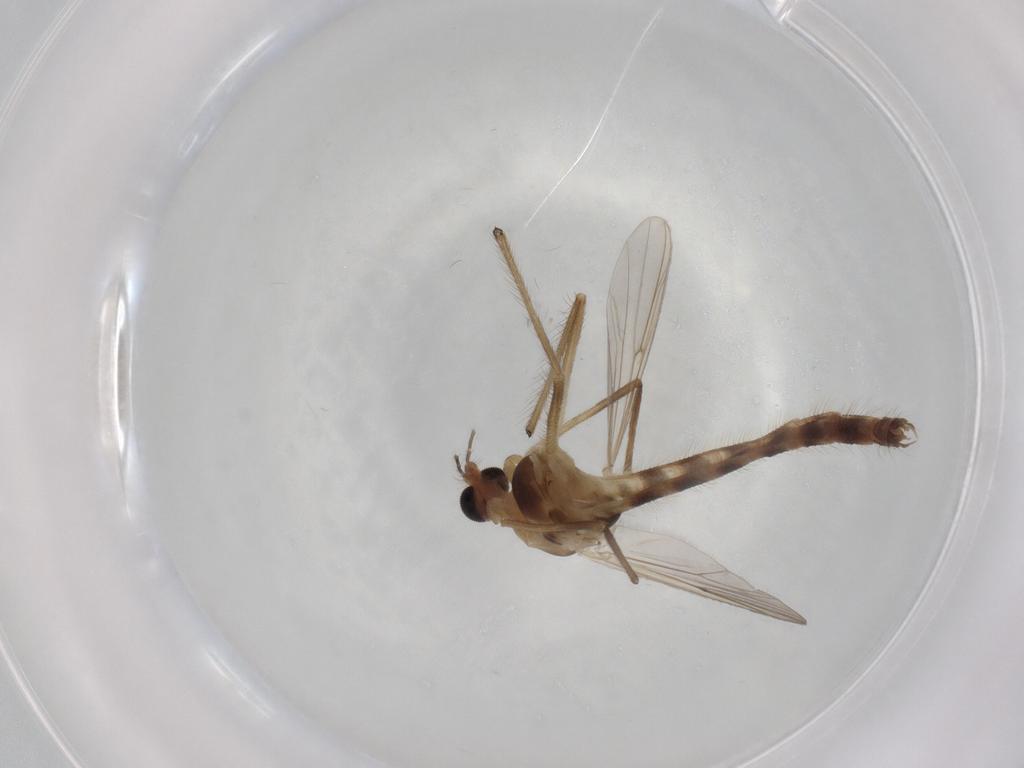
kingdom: Animalia
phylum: Arthropoda
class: Insecta
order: Diptera
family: Chironomidae
